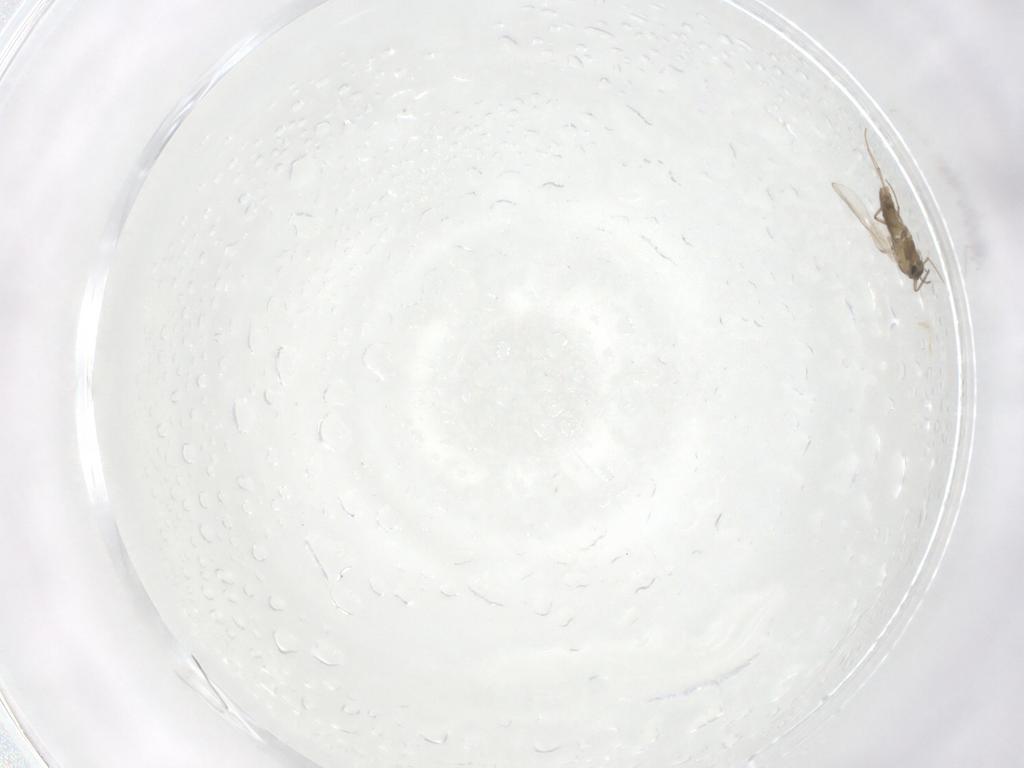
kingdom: Animalia
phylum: Arthropoda
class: Insecta
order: Diptera
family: Chironomidae
